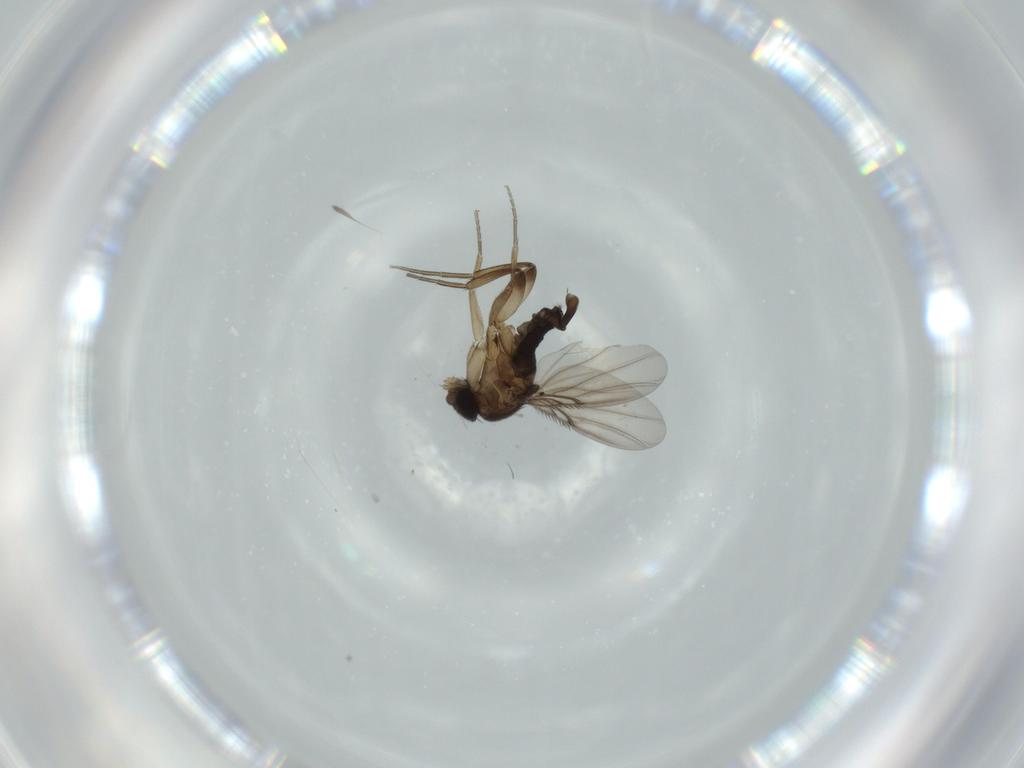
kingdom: Animalia
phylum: Arthropoda
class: Insecta
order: Diptera
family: Phoridae
